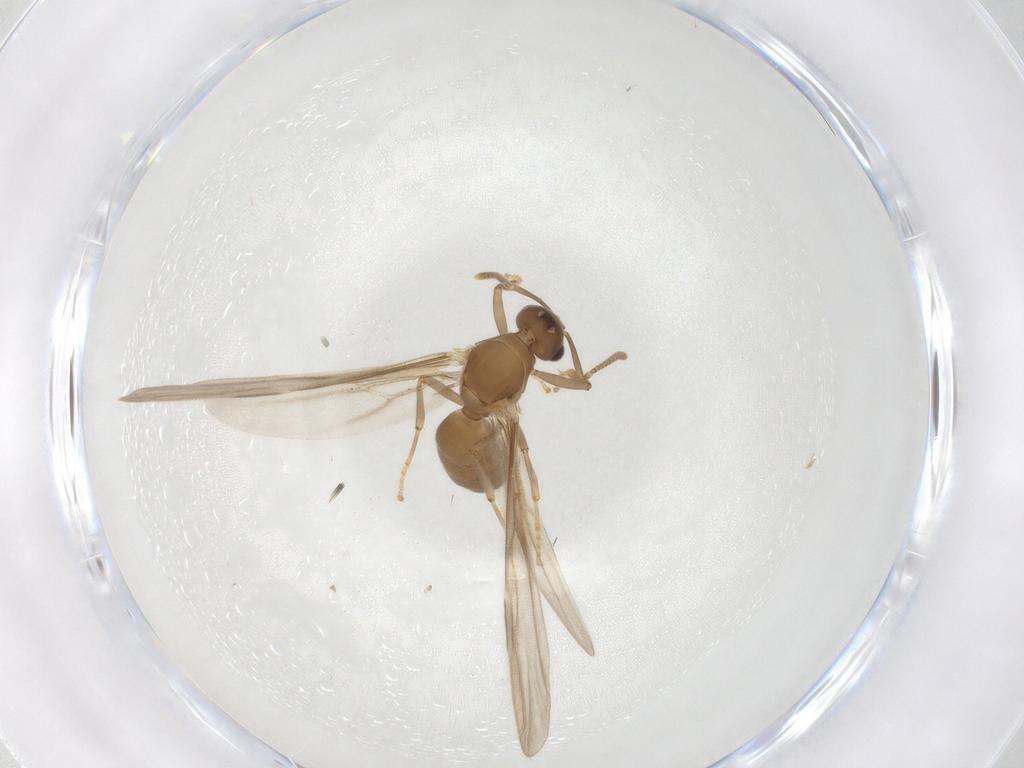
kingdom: Animalia
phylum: Arthropoda
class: Insecta
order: Hymenoptera
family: Formicidae
